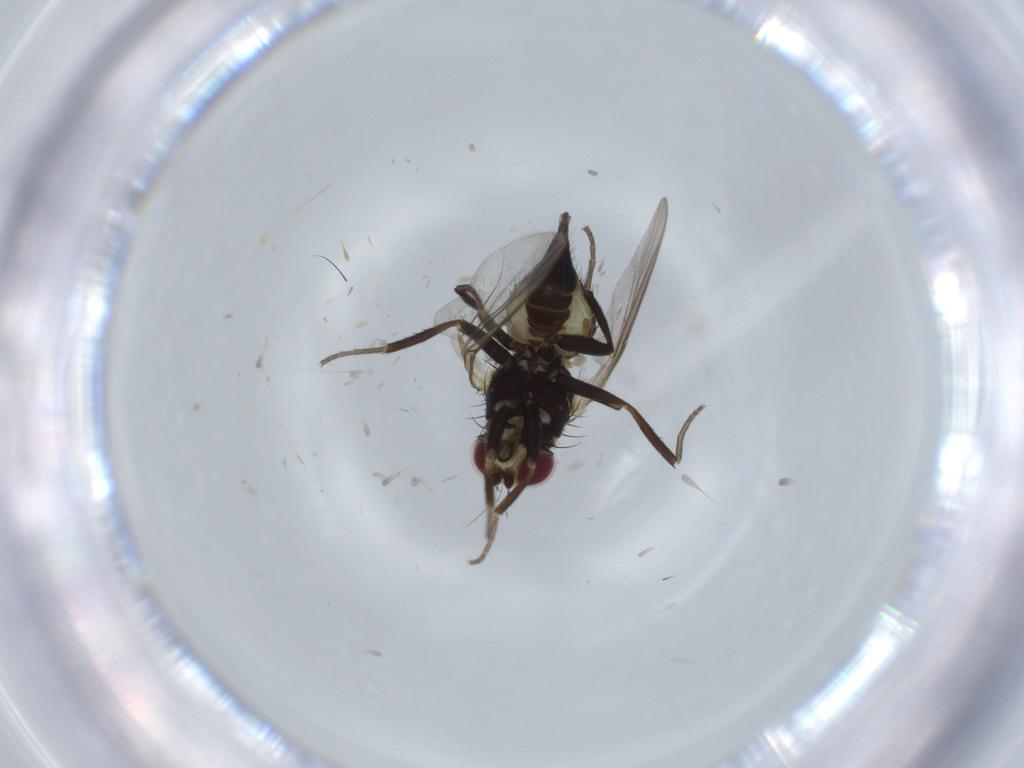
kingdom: Animalia
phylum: Arthropoda
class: Insecta
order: Diptera
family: Agromyzidae
